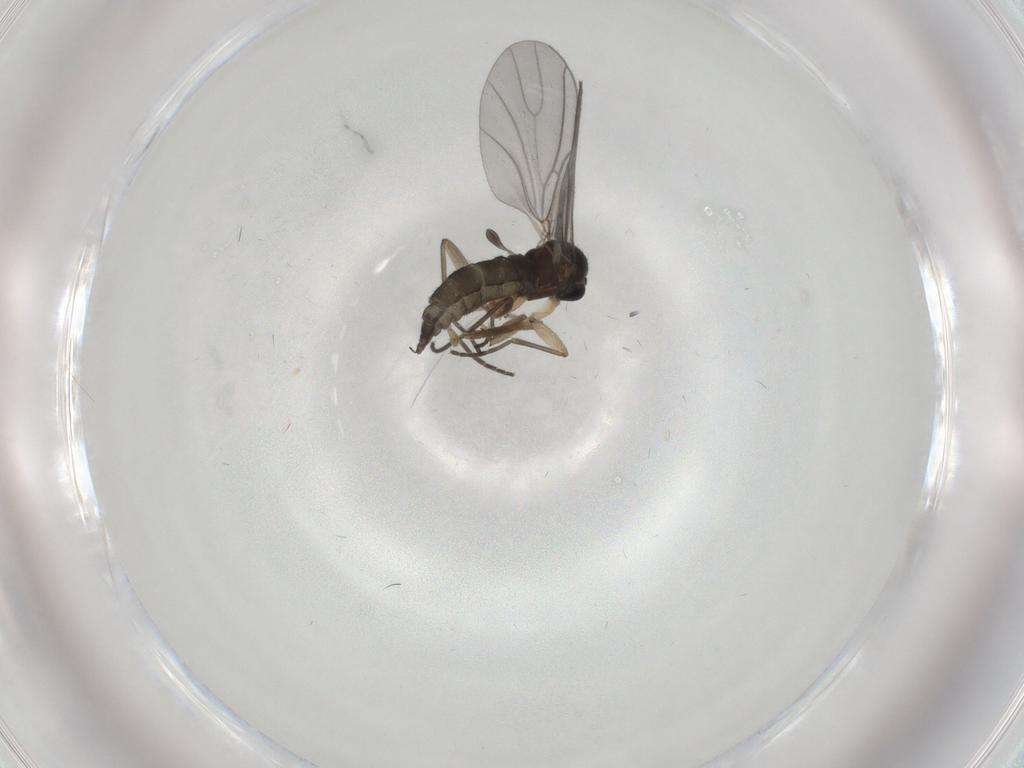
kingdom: Animalia
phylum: Arthropoda
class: Insecta
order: Diptera
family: Sciaridae
